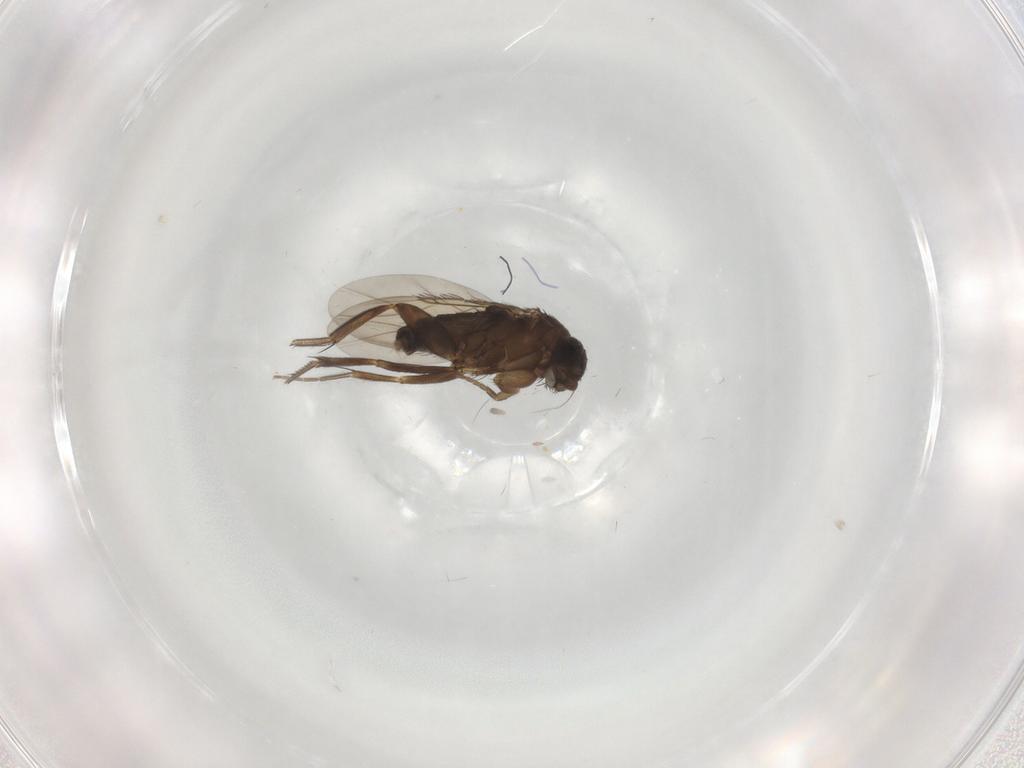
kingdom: Animalia
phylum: Arthropoda
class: Insecta
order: Diptera
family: Phoridae
